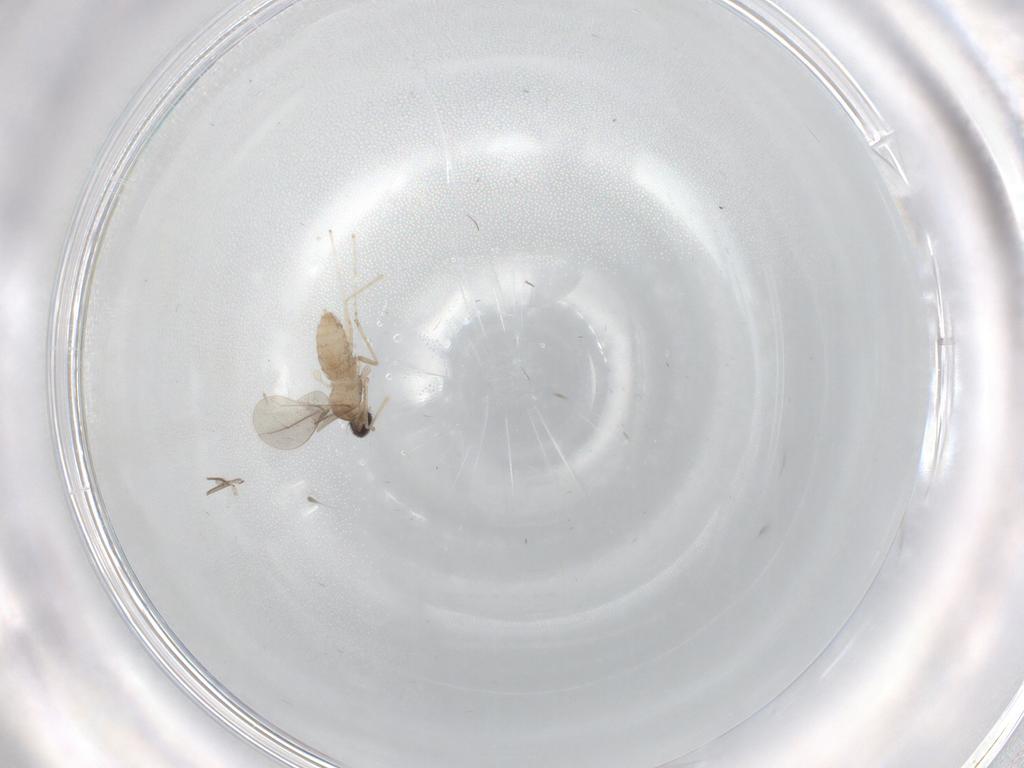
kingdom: Animalia
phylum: Arthropoda
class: Insecta
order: Diptera
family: Cecidomyiidae
